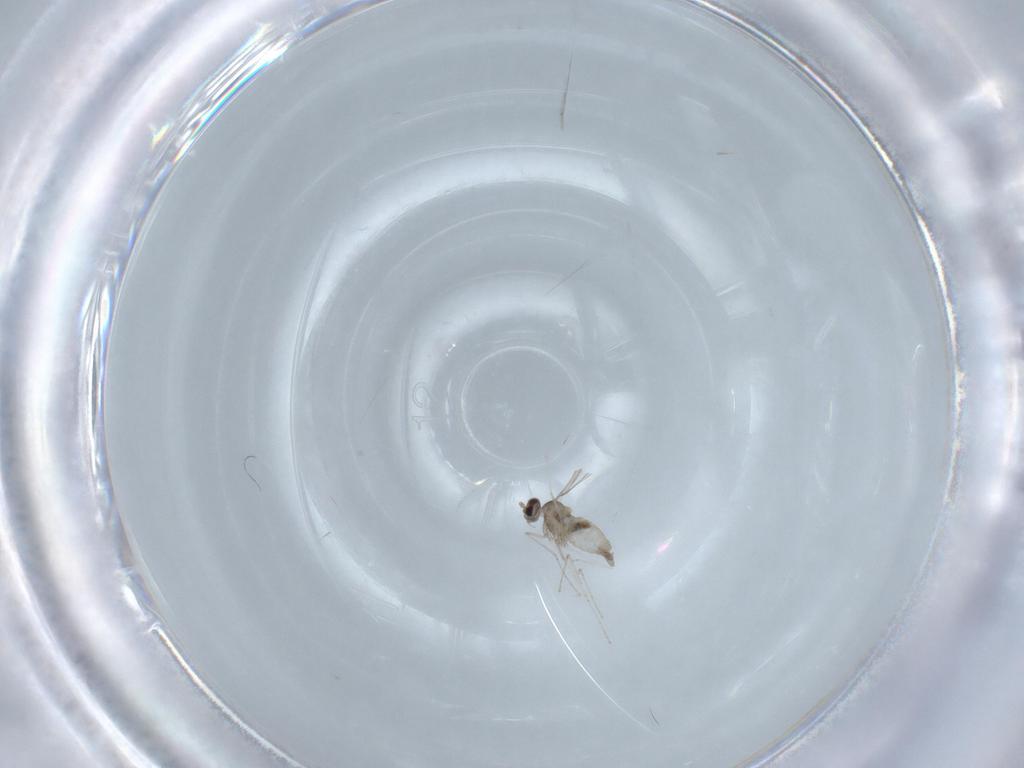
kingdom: Animalia
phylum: Arthropoda
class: Insecta
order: Diptera
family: Cecidomyiidae
